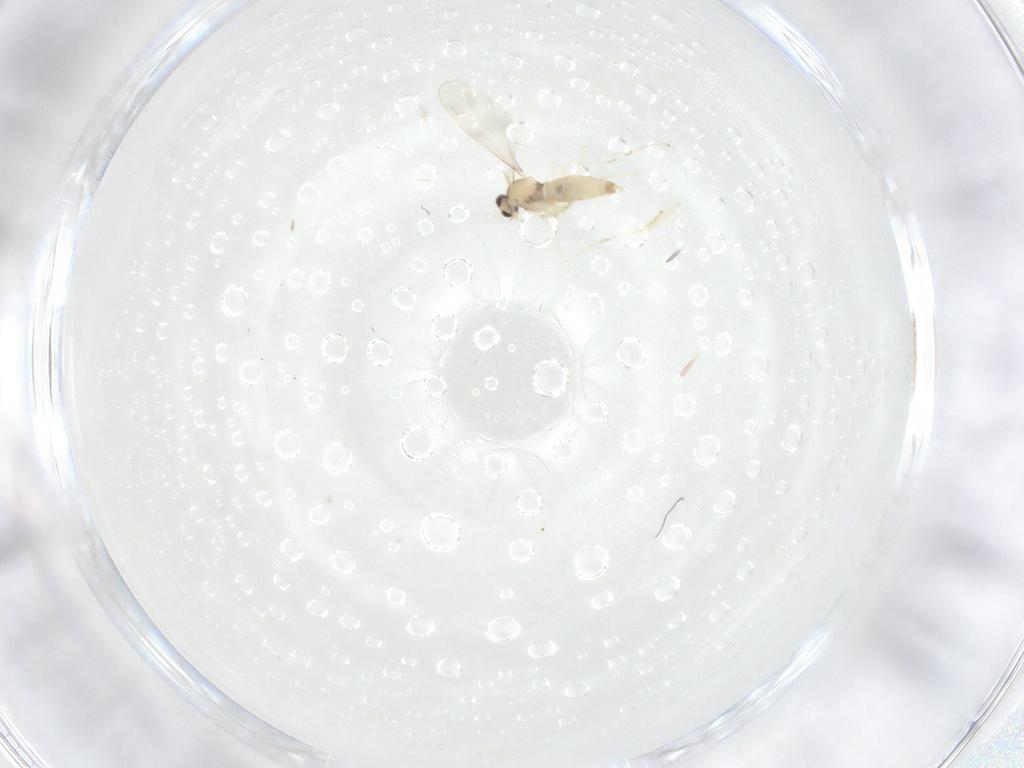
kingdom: Animalia
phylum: Arthropoda
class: Insecta
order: Diptera
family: Cecidomyiidae
